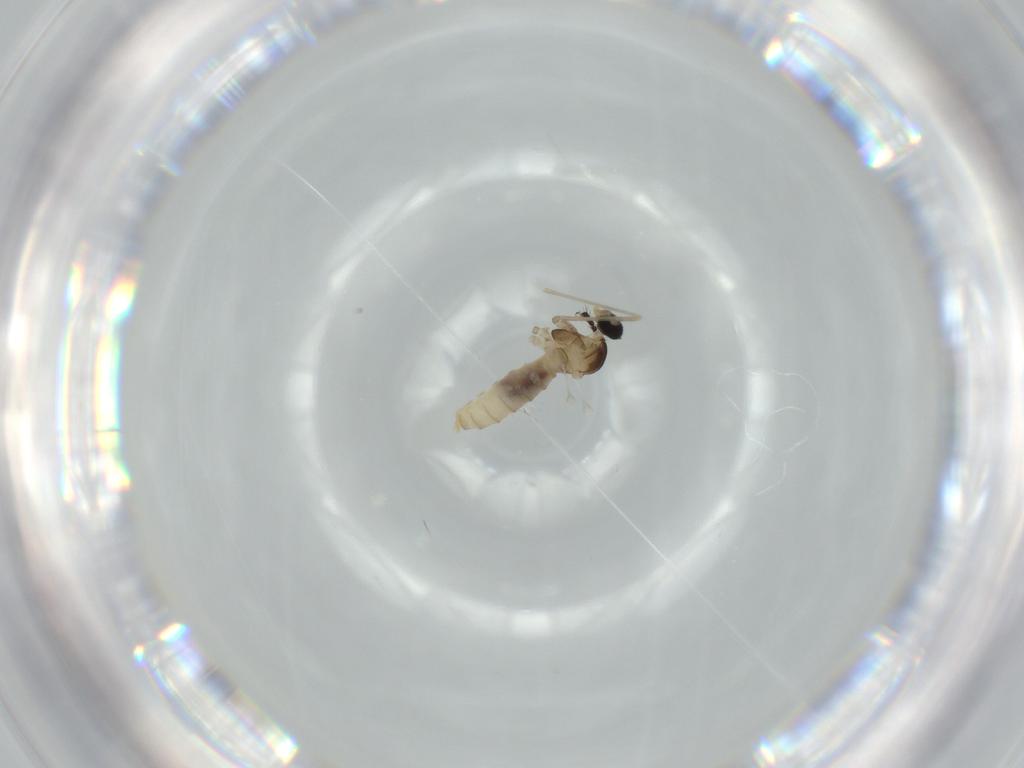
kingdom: Animalia
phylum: Arthropoda
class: Insecta
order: Diptera
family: Cecidomyiidae
